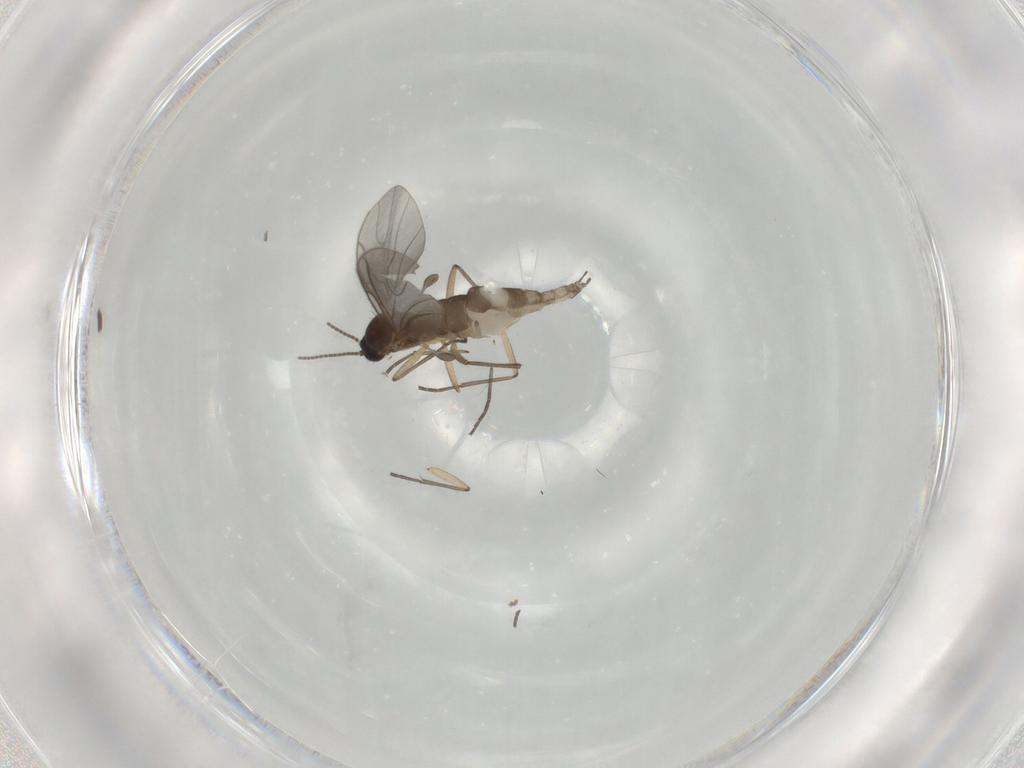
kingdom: Animalia
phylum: Arthropoda
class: Insecta
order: Diptera
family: Sciaridae
